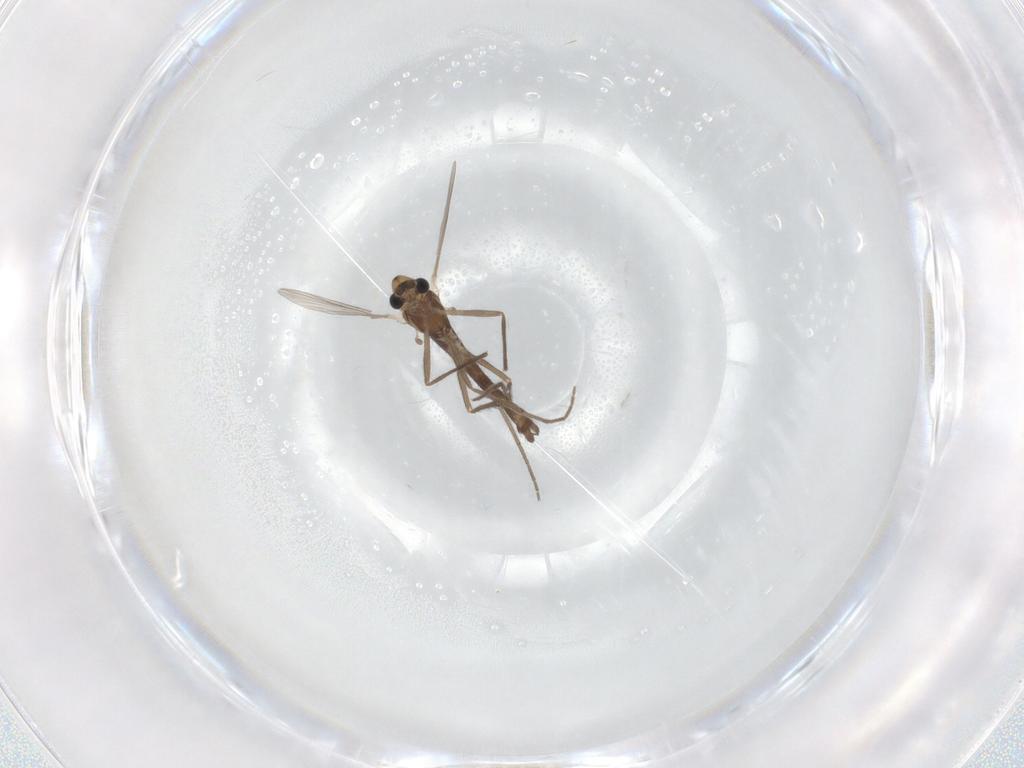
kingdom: Animalia
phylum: Arthropoda
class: Insecta
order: Diptera
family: Chironomidae
